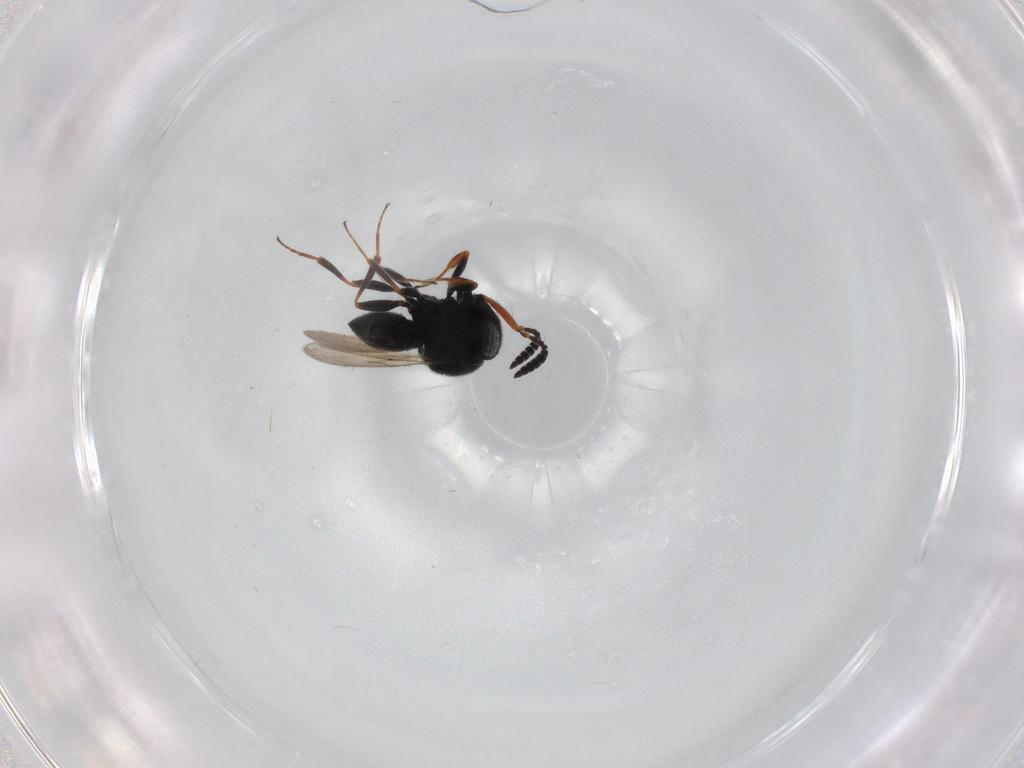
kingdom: Animalia
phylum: Arthropoda
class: Insecta
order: Hymenoptera
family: Scelionidae
